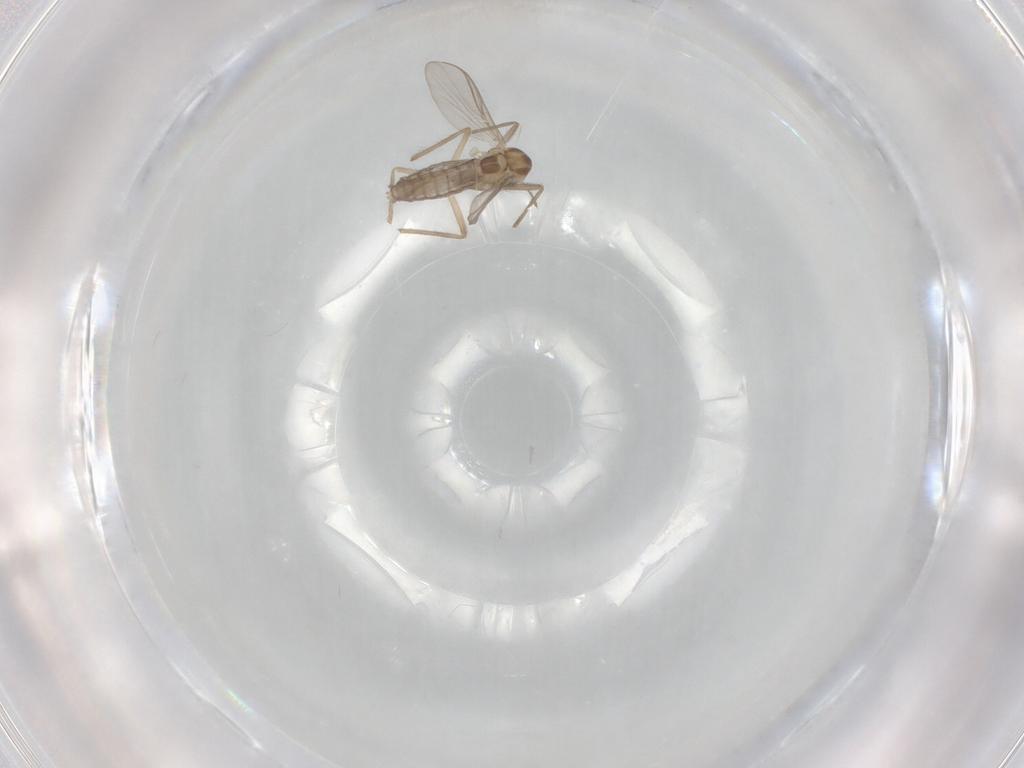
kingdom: Animalia
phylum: Arthropoda
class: Insecta
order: Diptera
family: Chironomidae
